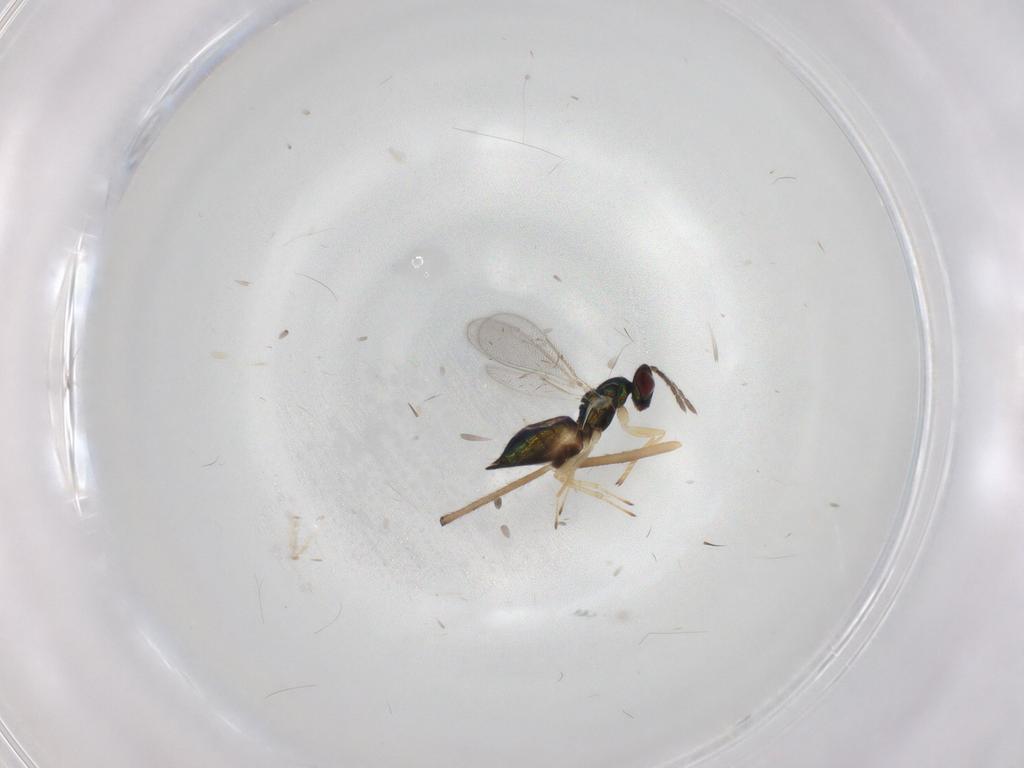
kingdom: Animalia
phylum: Arthropoda
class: Insecta
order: Hymenoptera
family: Eulophidae
